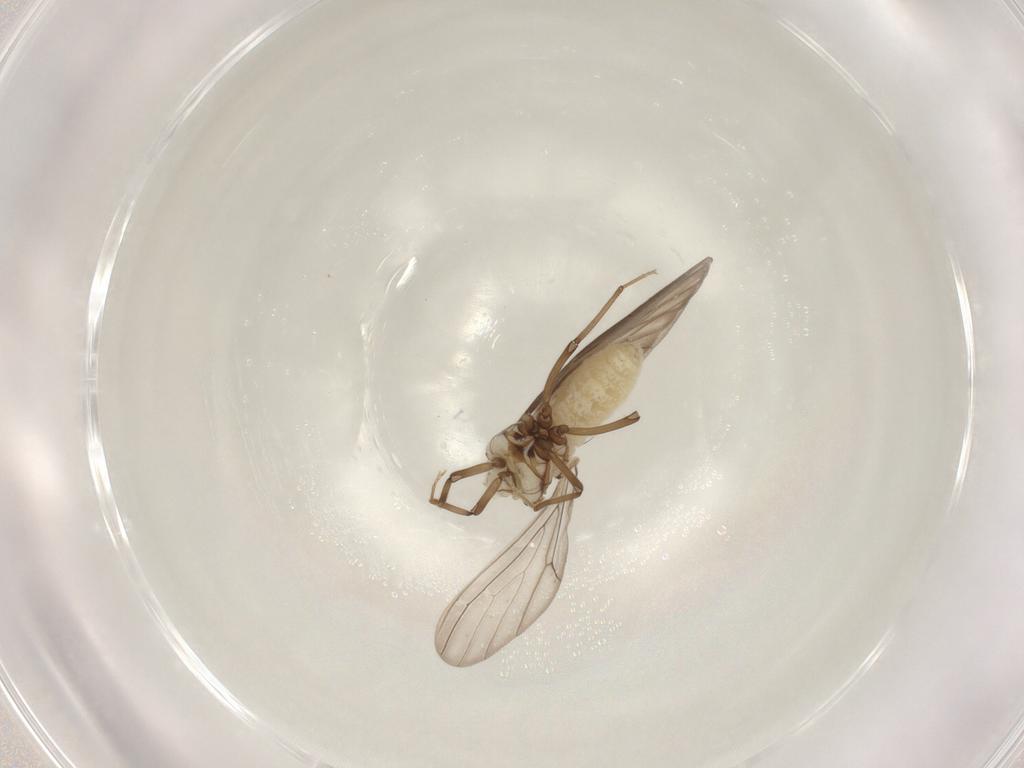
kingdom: Animalia
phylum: Arthropoda
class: Insecta
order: Neuroptera
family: Coniopterygidae
